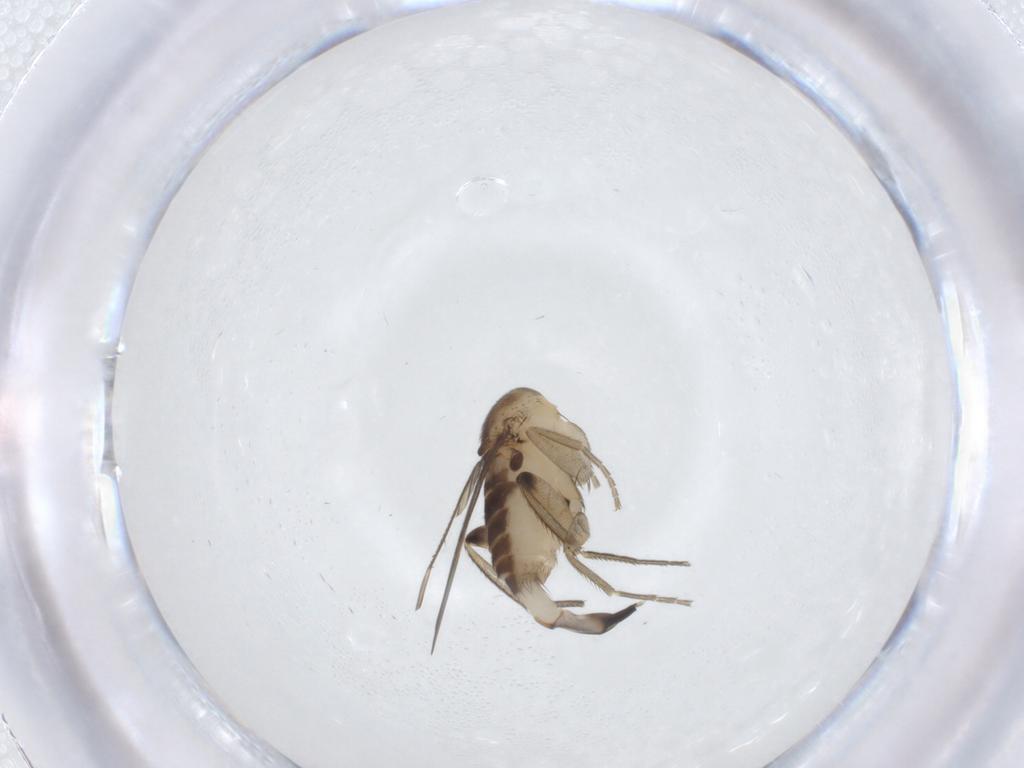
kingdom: Animalia
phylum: Arthropoda
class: Insecta
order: Diptera
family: Phoridae
